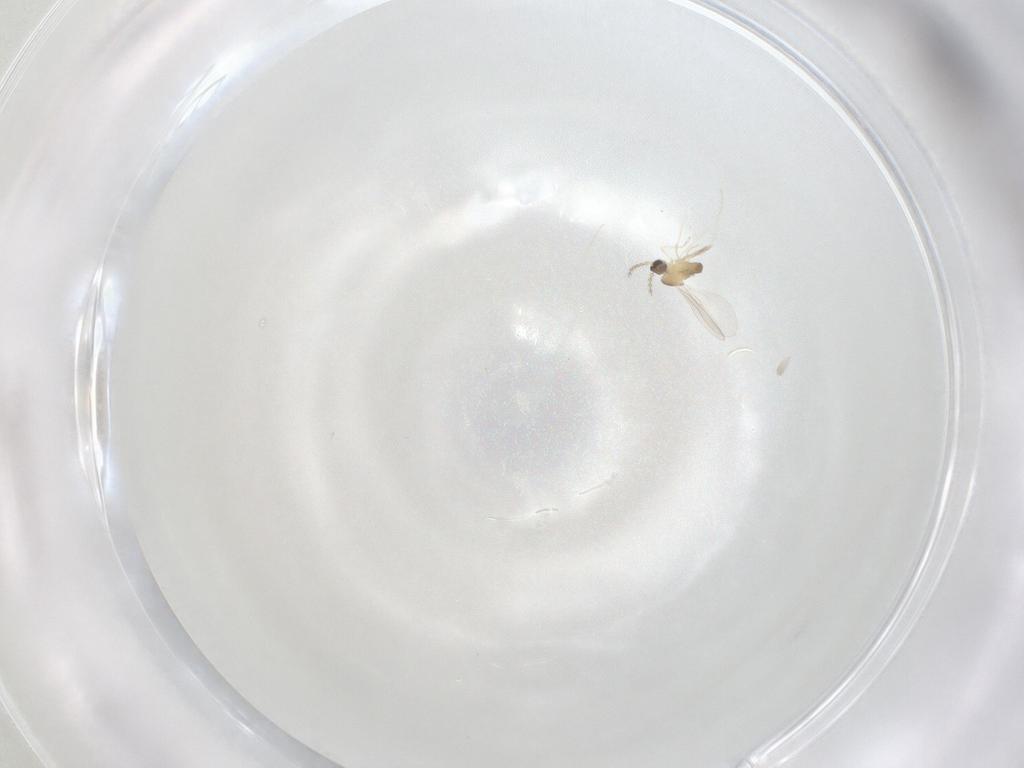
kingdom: Animalia
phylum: Arthropoda
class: Insecta
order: Diptera
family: Cecidomyiidae
